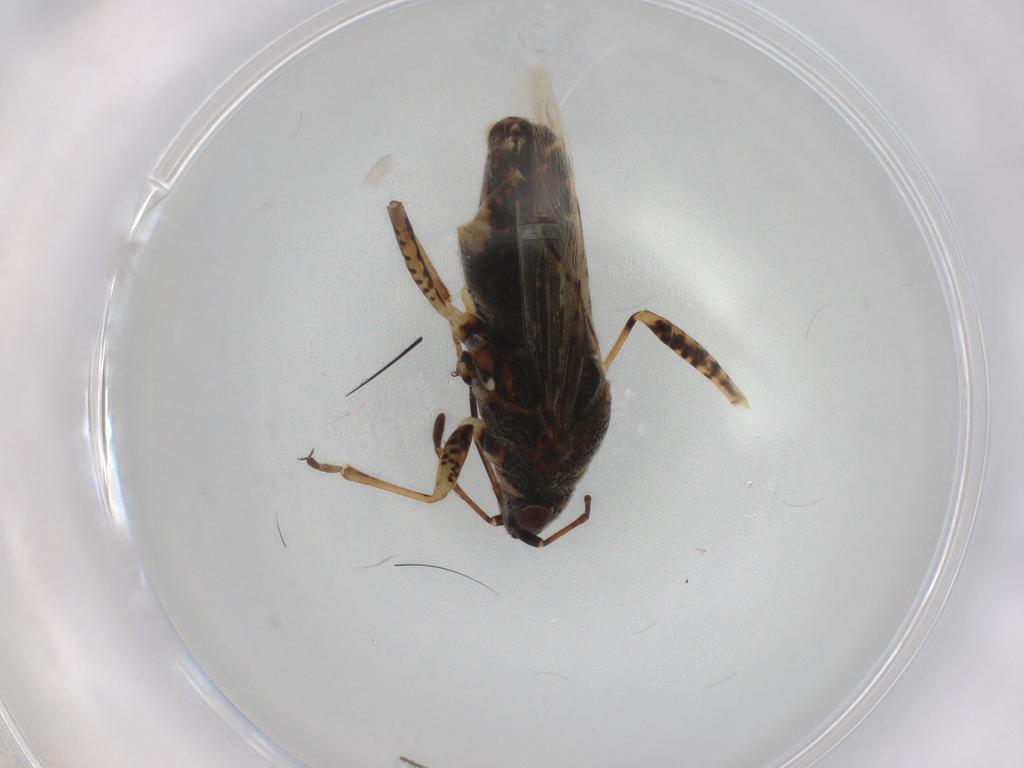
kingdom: Animalia
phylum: Arthropoda
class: Insecta
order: Hemiptera
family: Lygaeidae
